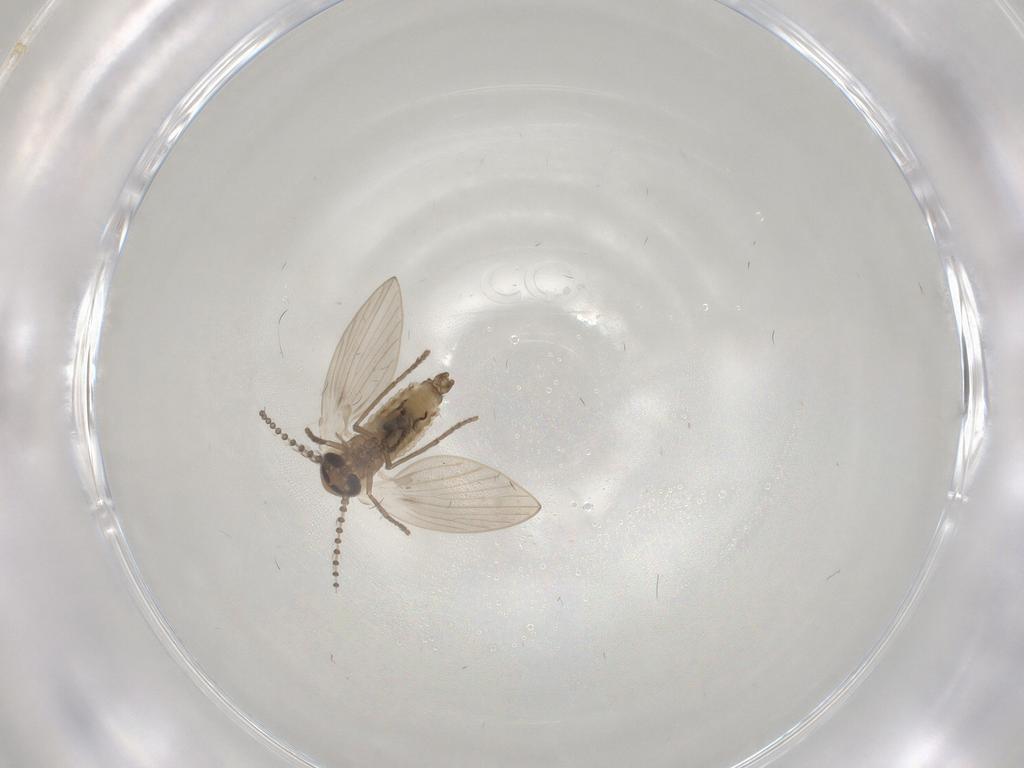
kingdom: Animalia
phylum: Arthropoda
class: Insecta
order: Diptera
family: Psychodidae
